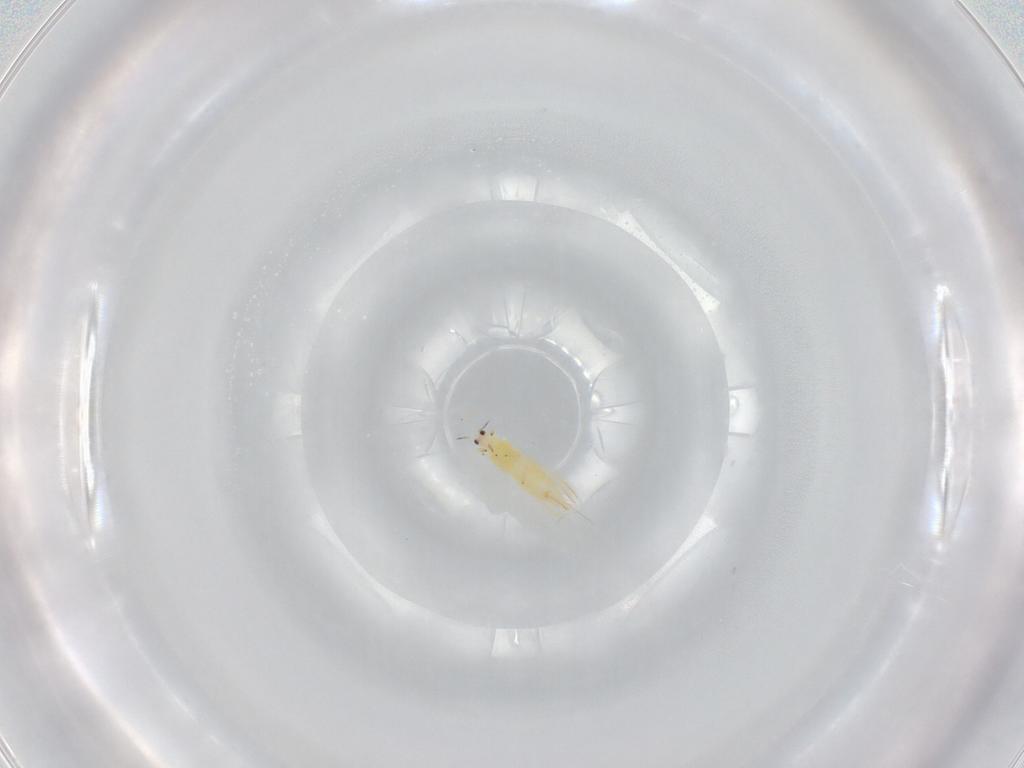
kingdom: Animalia
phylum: Arthropoda
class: Insecta
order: Thysanoptera
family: Thripidae
